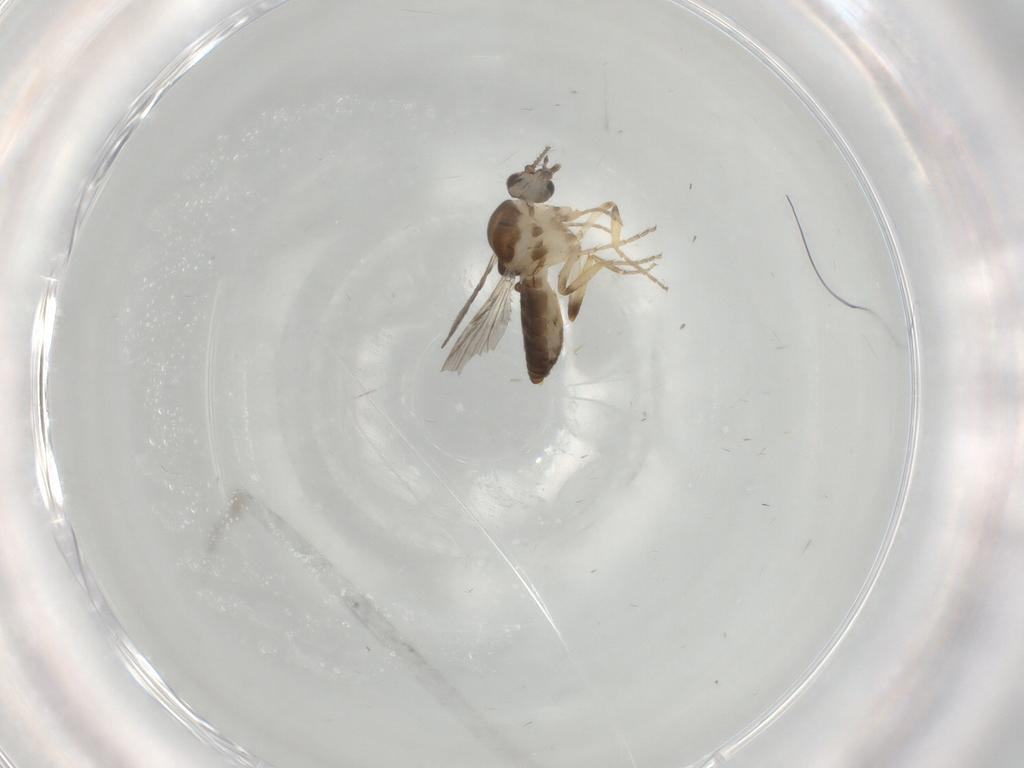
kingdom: Animalia
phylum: Arthropoda
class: Insecta
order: Diptera
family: Ceratopogonidae
